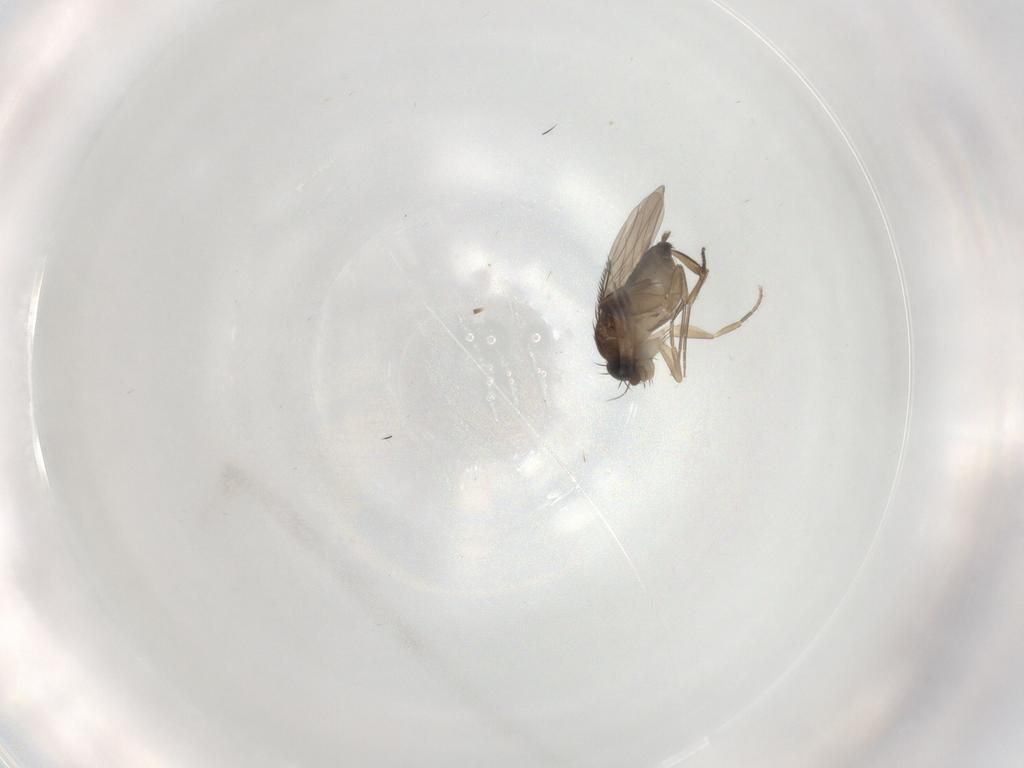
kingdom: Animalia
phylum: Arthropoda
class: Insecta
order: Diptera
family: Phoridae
